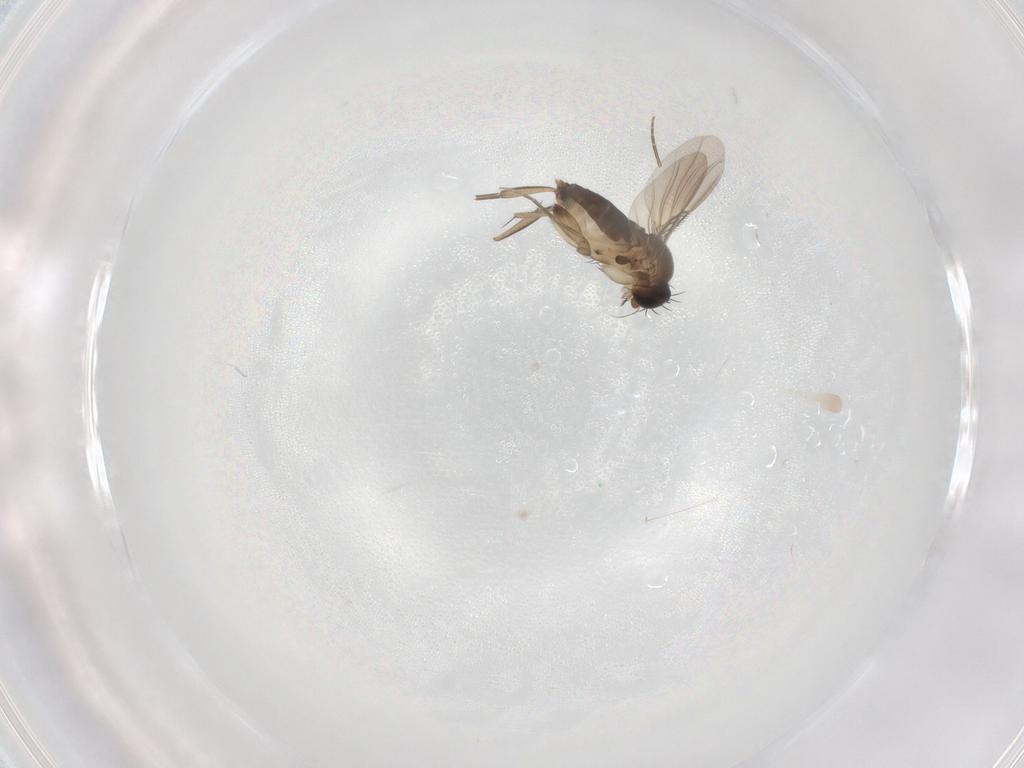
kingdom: Animalia
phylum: Arthropoda
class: Insecta
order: Diptera
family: Phoridae
